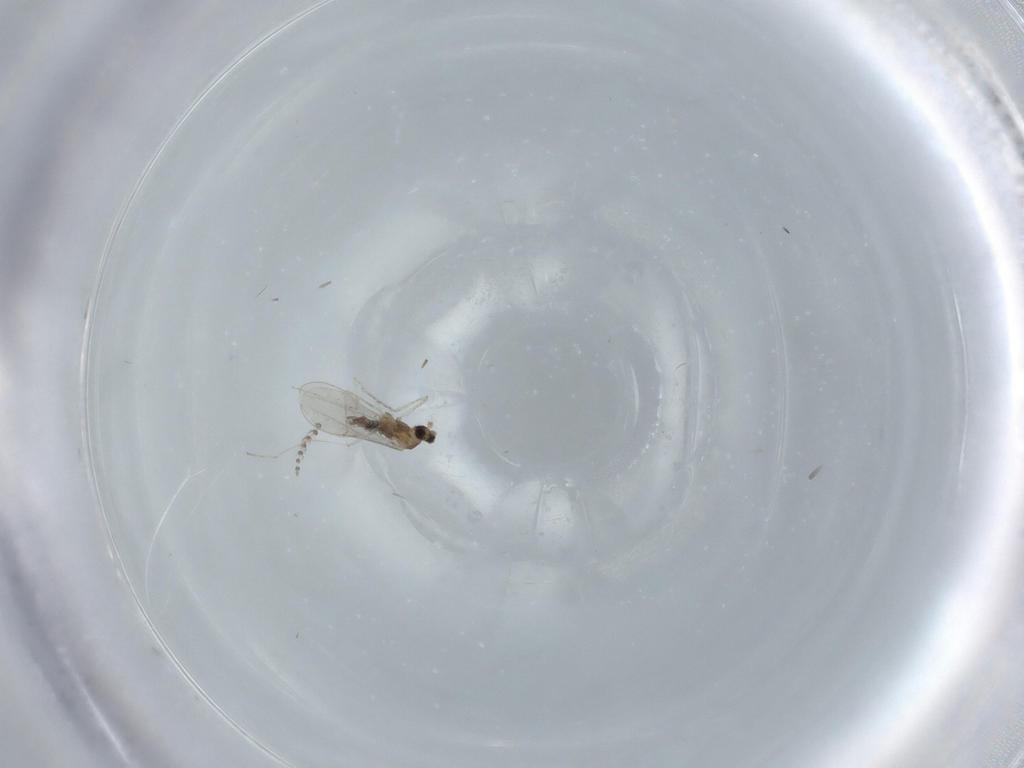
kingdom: Animalia
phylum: Arthropoda
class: Insecta
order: Diptera
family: Cecidomyiidae
